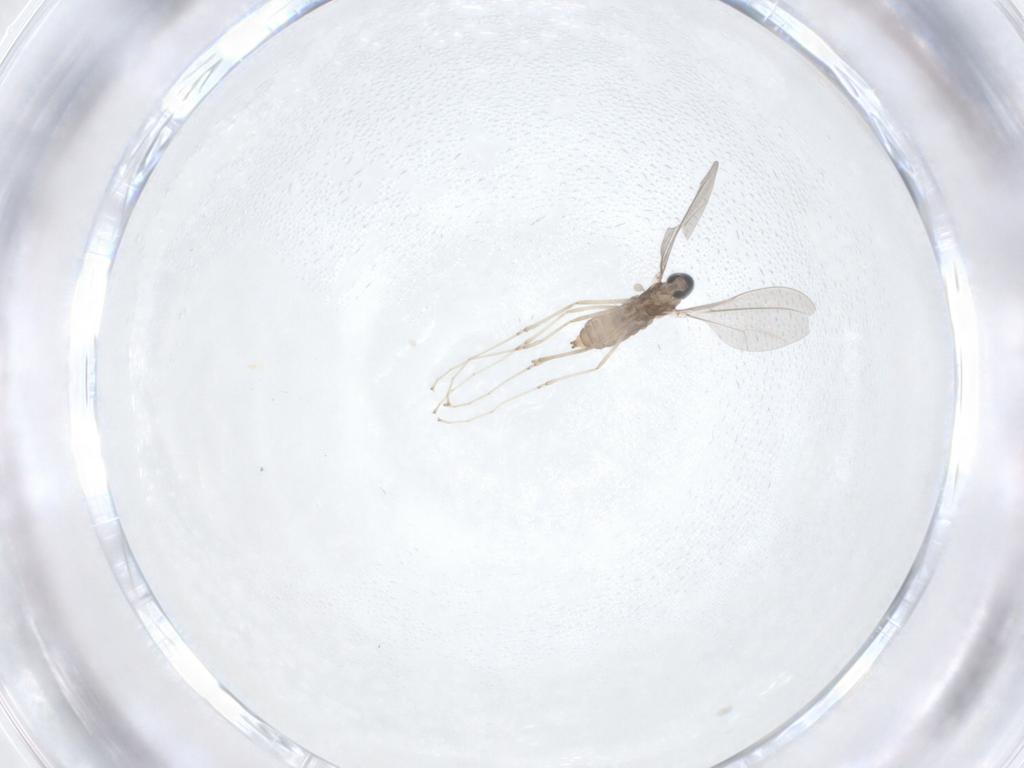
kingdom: Animalia
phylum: Arthropoda
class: Insecta
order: Diptera
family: Cecidomyiidae
